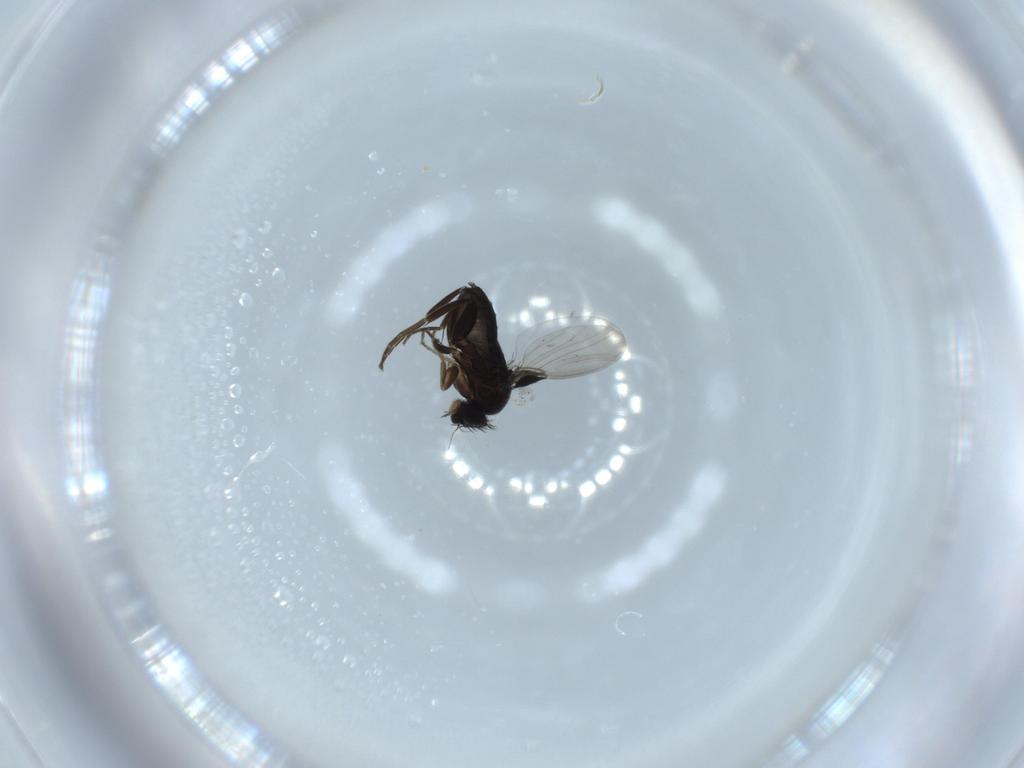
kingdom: Animalia
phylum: Arthropoda
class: Insecta
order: Diptera
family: Phoridae
